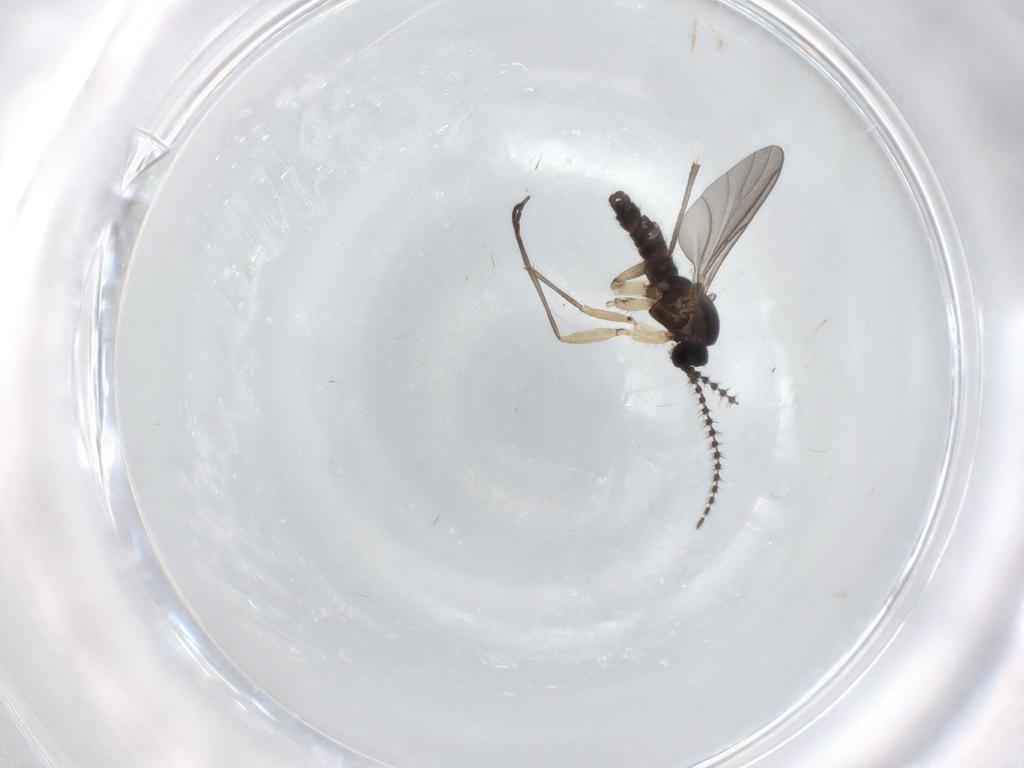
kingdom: Animalia
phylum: Arthropoda
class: Insecta
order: Diptera
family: Sciaridae
